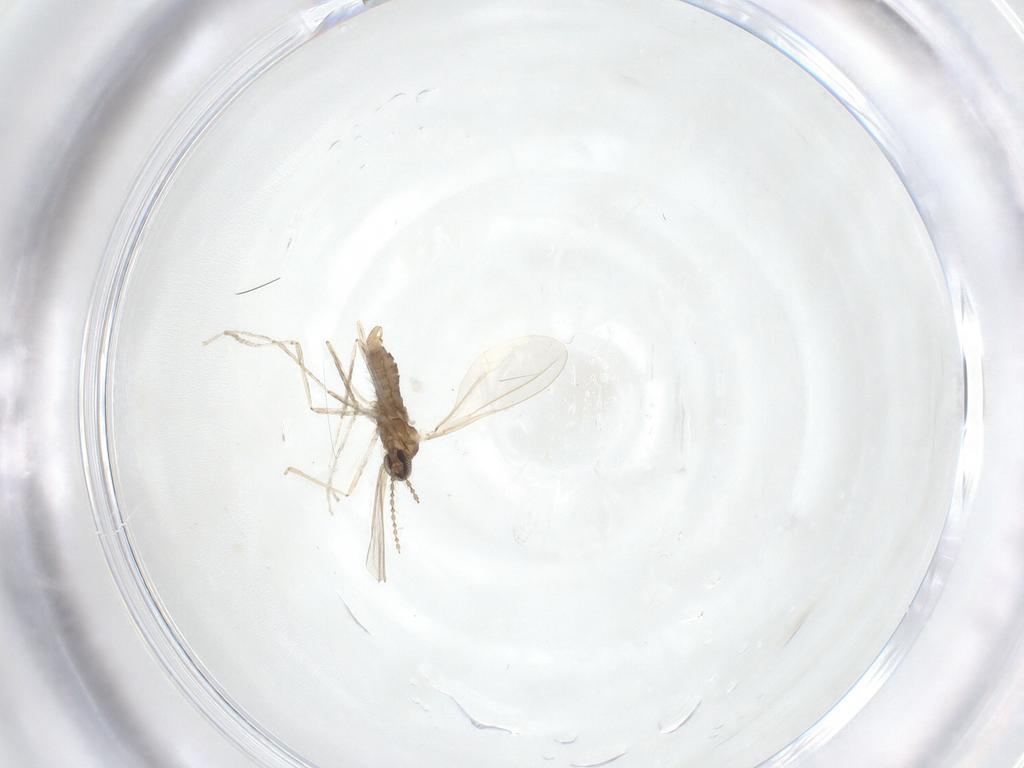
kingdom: Animalia
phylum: Arthropoda
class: Insecta
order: Diptera
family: Cecidomyiidae
